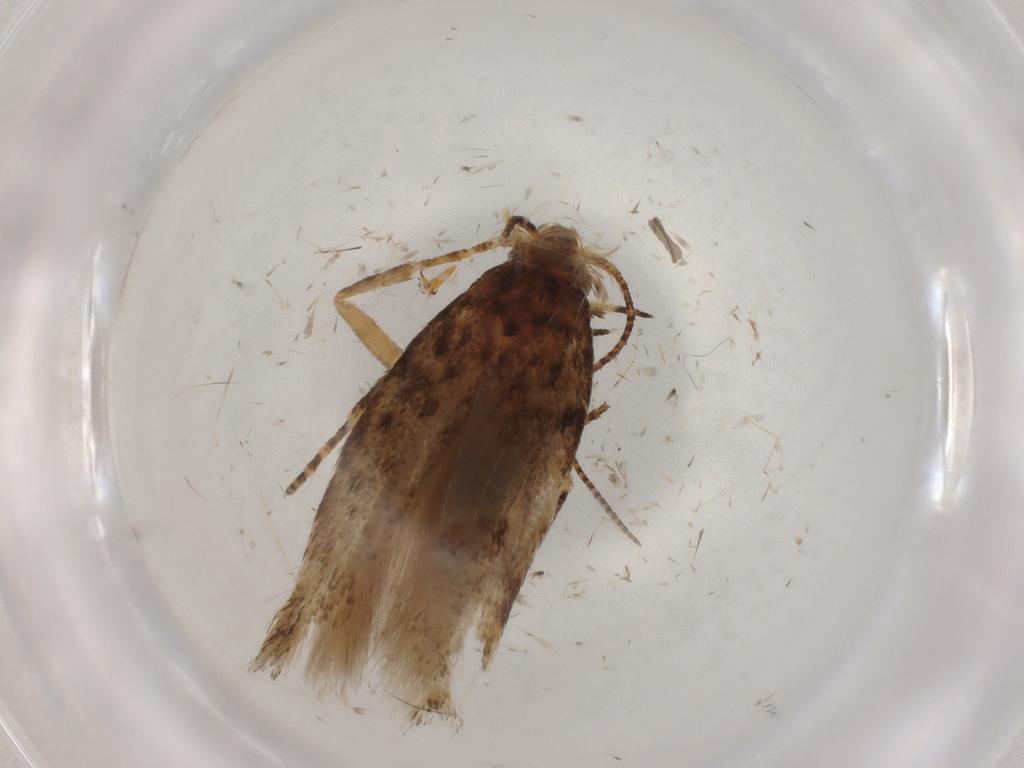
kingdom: Animalia
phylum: Arthropoda
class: Insecta
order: Lepidoptera
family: Gelechiidae
